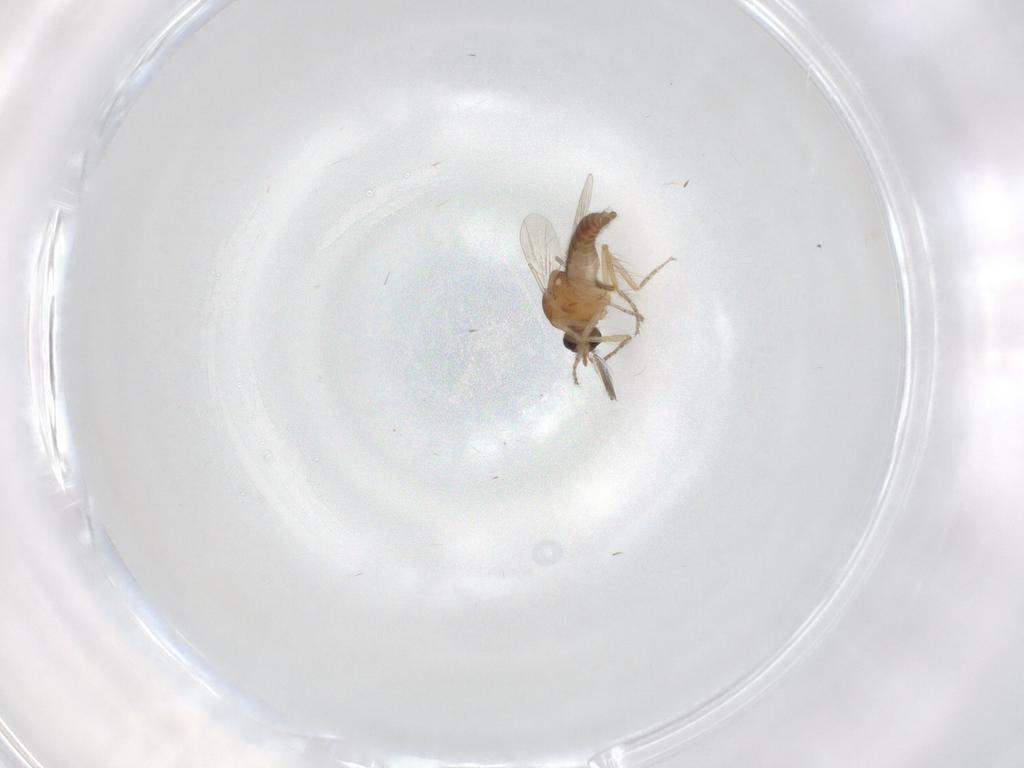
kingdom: Animalia
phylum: Arthropoda
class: Insecta
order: Diptera
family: Ceratopogonidae
